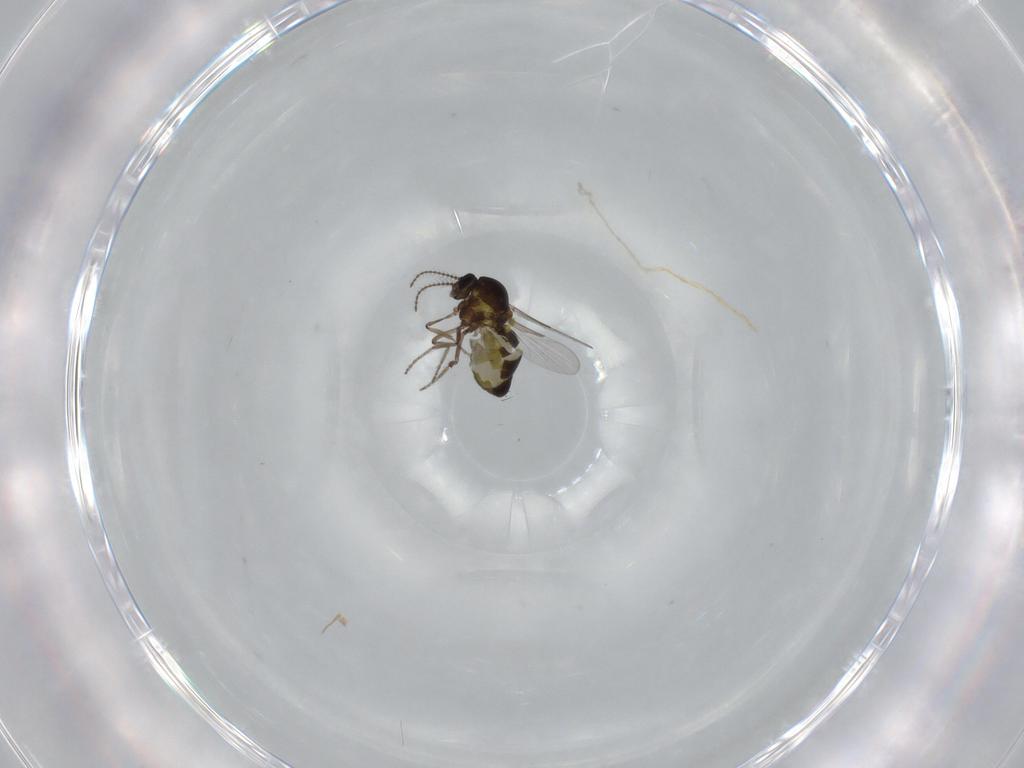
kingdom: Animalia
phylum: Arthropoda
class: Insecta
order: Diptera
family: Ceratopogonidae
